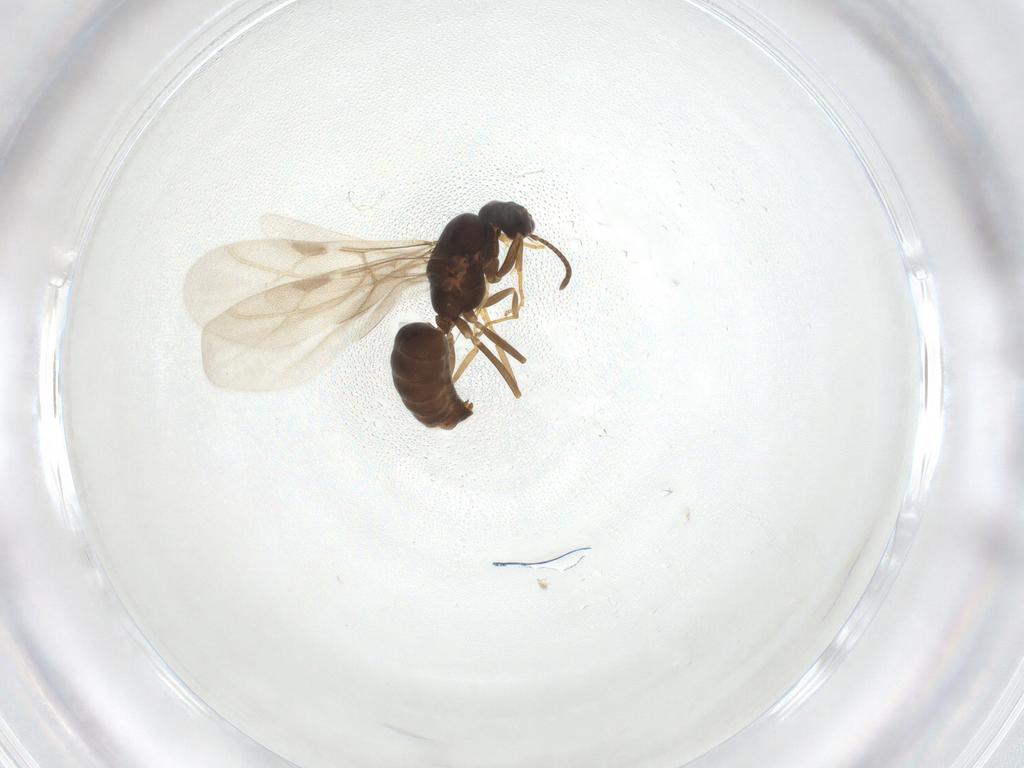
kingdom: Animalia
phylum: Arthropoda
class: Insecta
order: Hymenoptera
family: Formicidae
